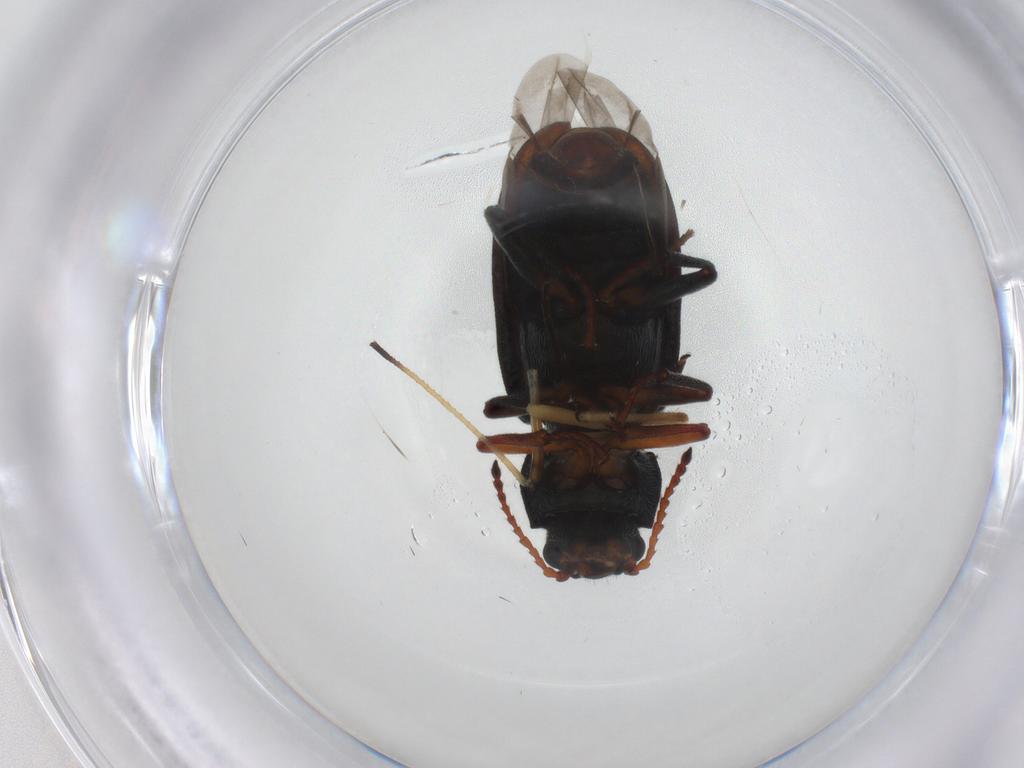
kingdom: Animalia
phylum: Arthropoda
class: Insecta
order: Coleoptera
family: Melyridae
